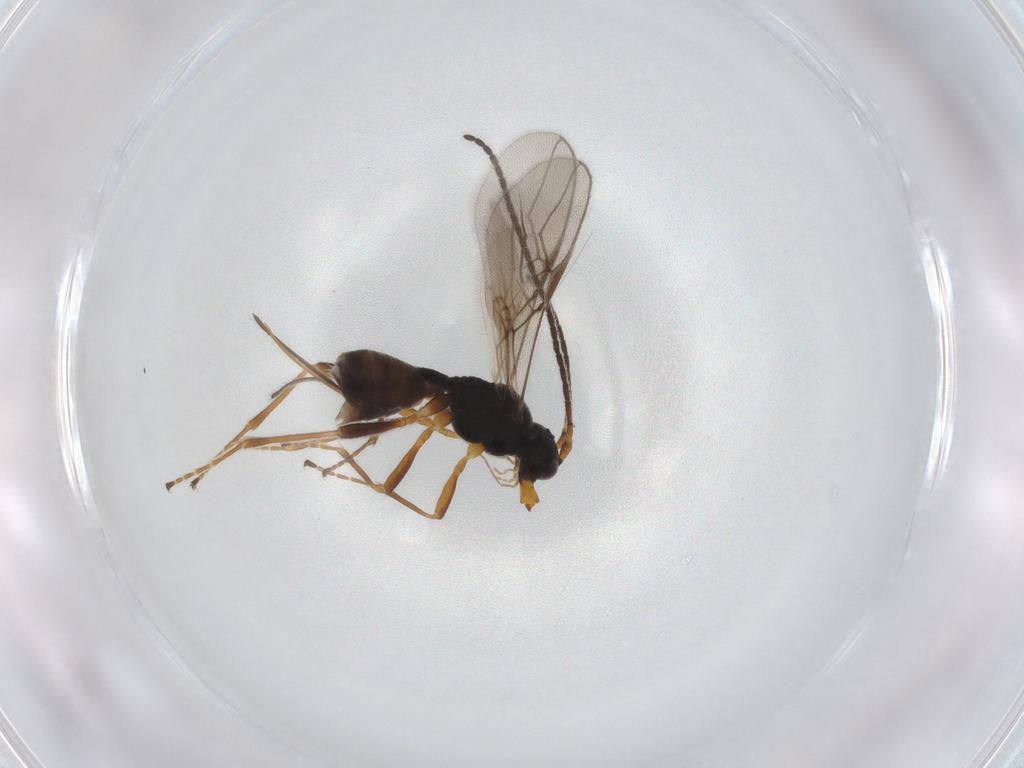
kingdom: Animalia
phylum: Arthropoda
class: Insecta
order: Hymenoptera
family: Braconidae
